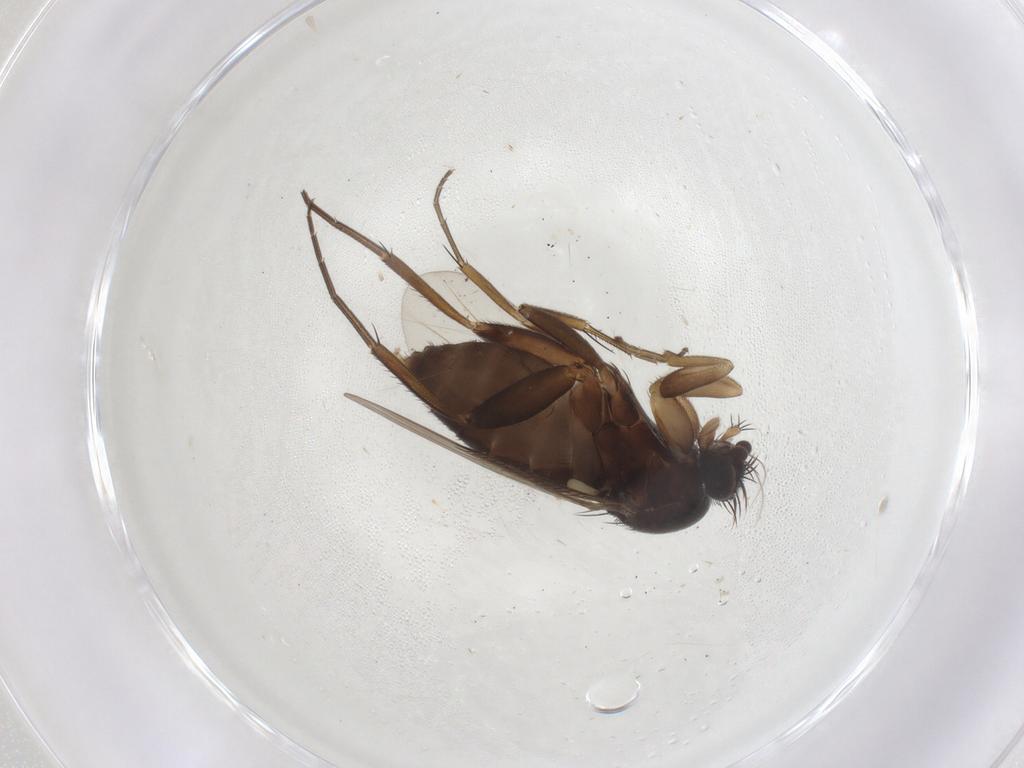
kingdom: Animalia
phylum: Arthropoda
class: Insecta
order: Diptera
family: Phoridae
